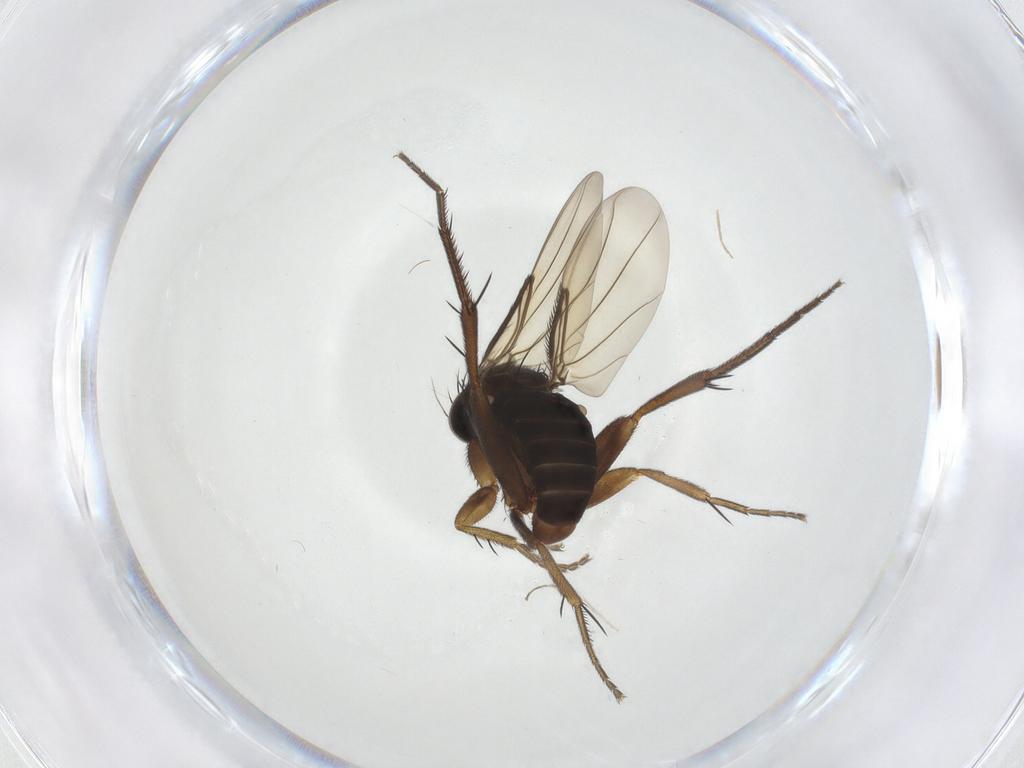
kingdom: Animalia
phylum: Arthropoda
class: Insecta
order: Diptera
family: Phoridae
